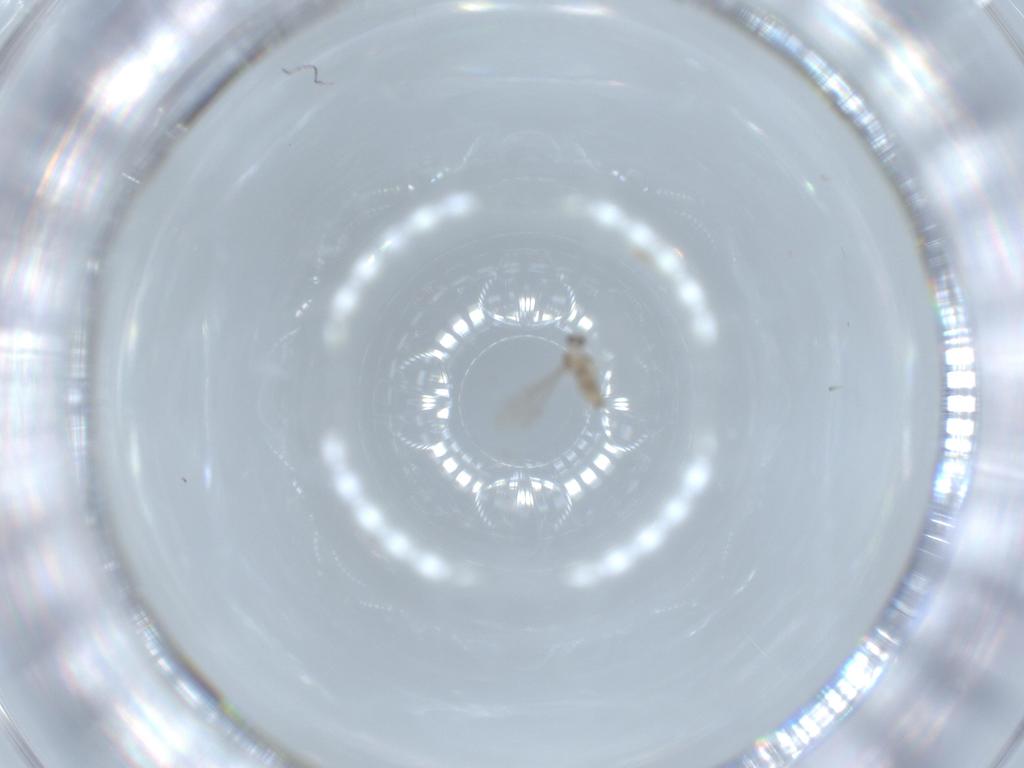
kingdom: Animalia
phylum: Arthropoda
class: Insecta
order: Diptera
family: Cecidomyiidae
